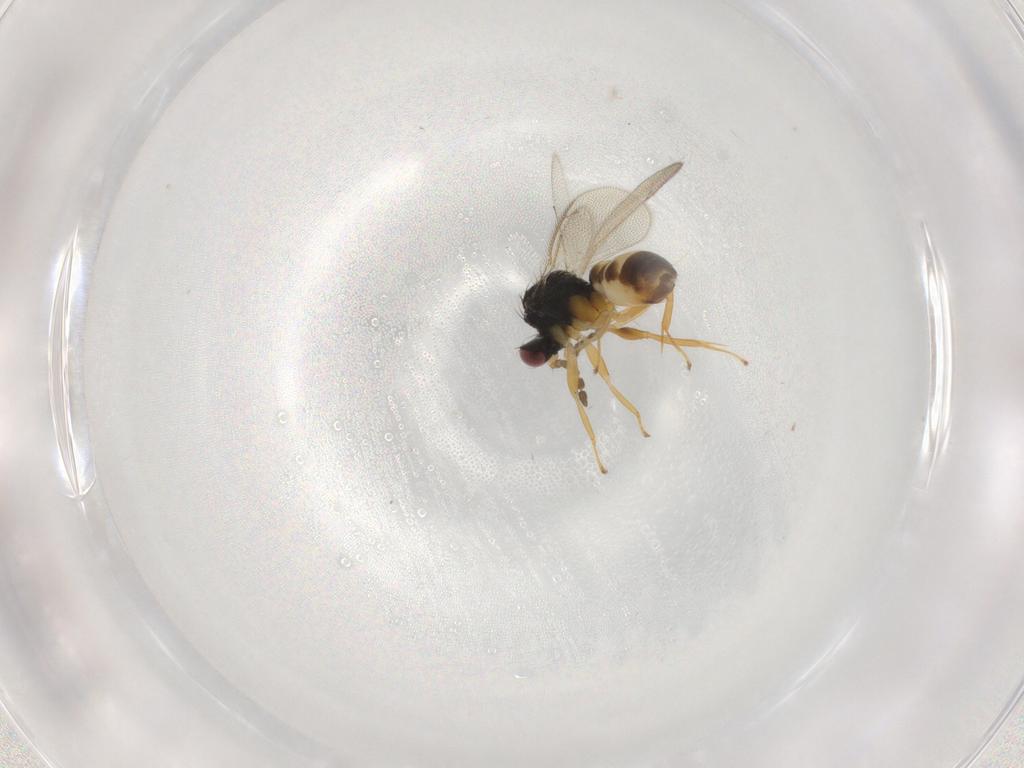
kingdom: Animalia
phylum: Arthropoda
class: Insecta
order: Hymenoptera
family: Eulophidae
